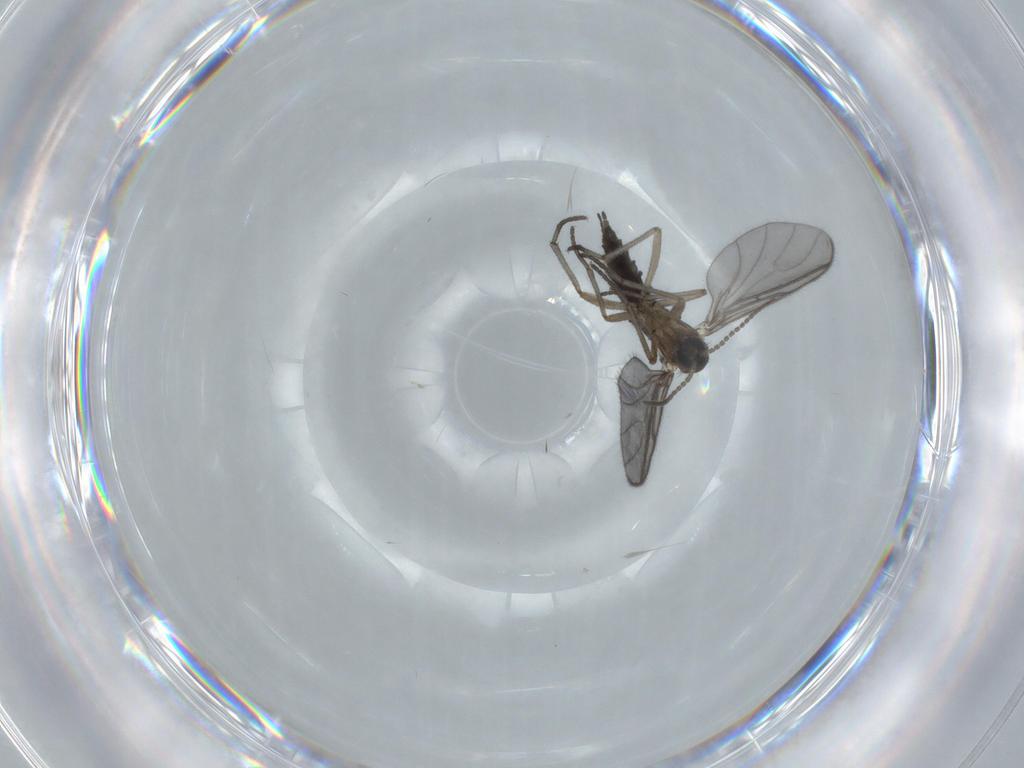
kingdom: Animalia
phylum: Arthropoda
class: Insecta
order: Diptera
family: Sciaridae
